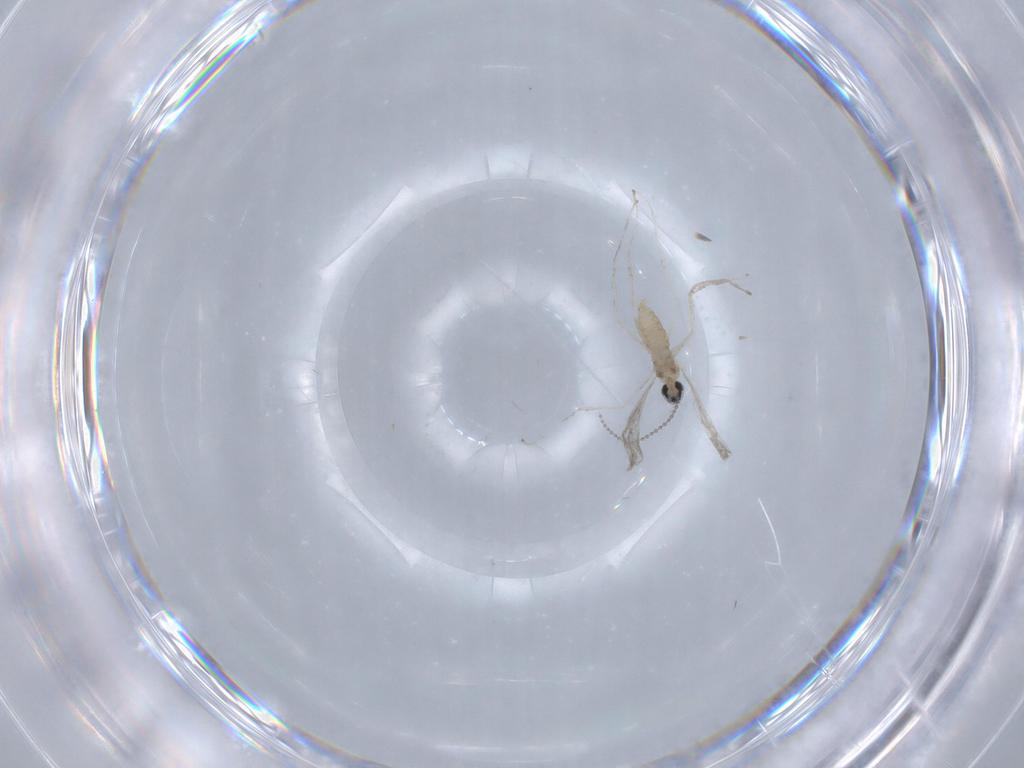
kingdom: Animalia
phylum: Arthropoda
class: Insecta
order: Diptera
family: Cecidomyiidae
